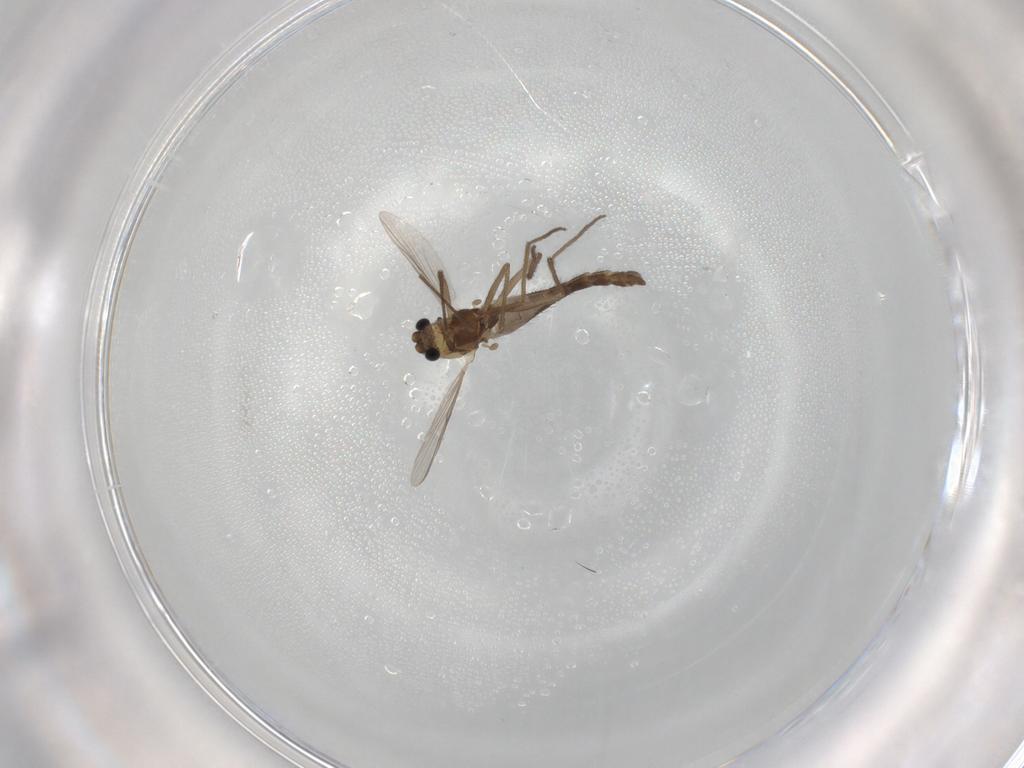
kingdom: Animalia
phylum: Arthropoda
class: Insecta
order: Diptera
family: Chironomidae
